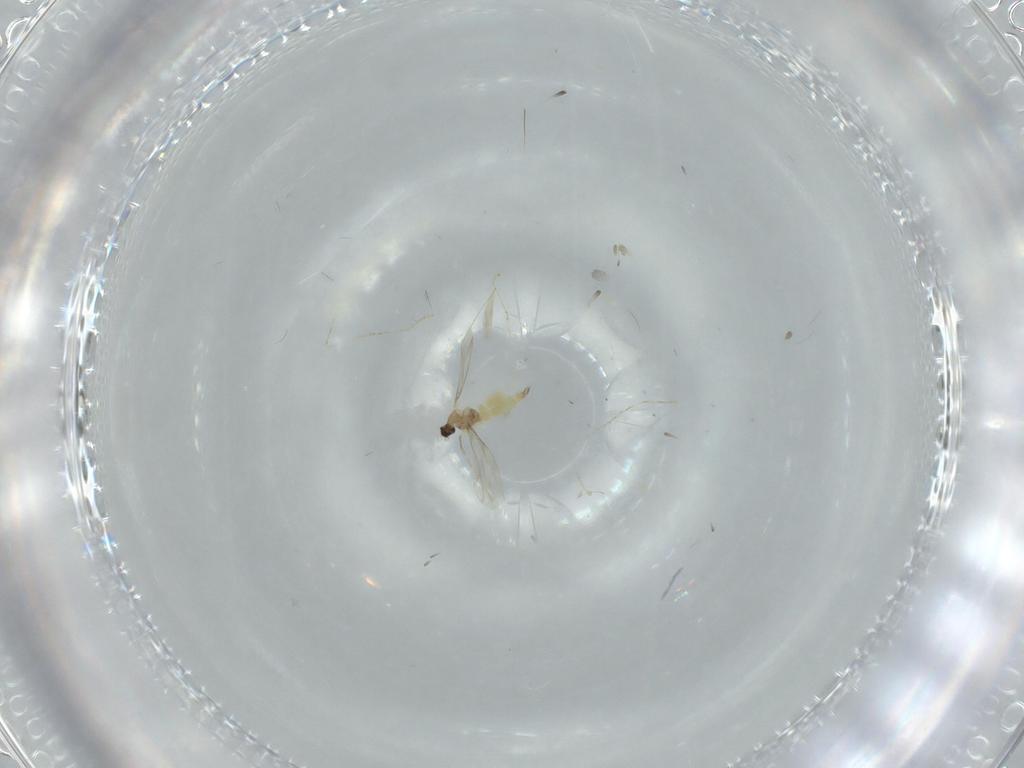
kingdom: Animalia
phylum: Arthropoda
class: Insecta
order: Diptera
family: Cecidomyiidae
